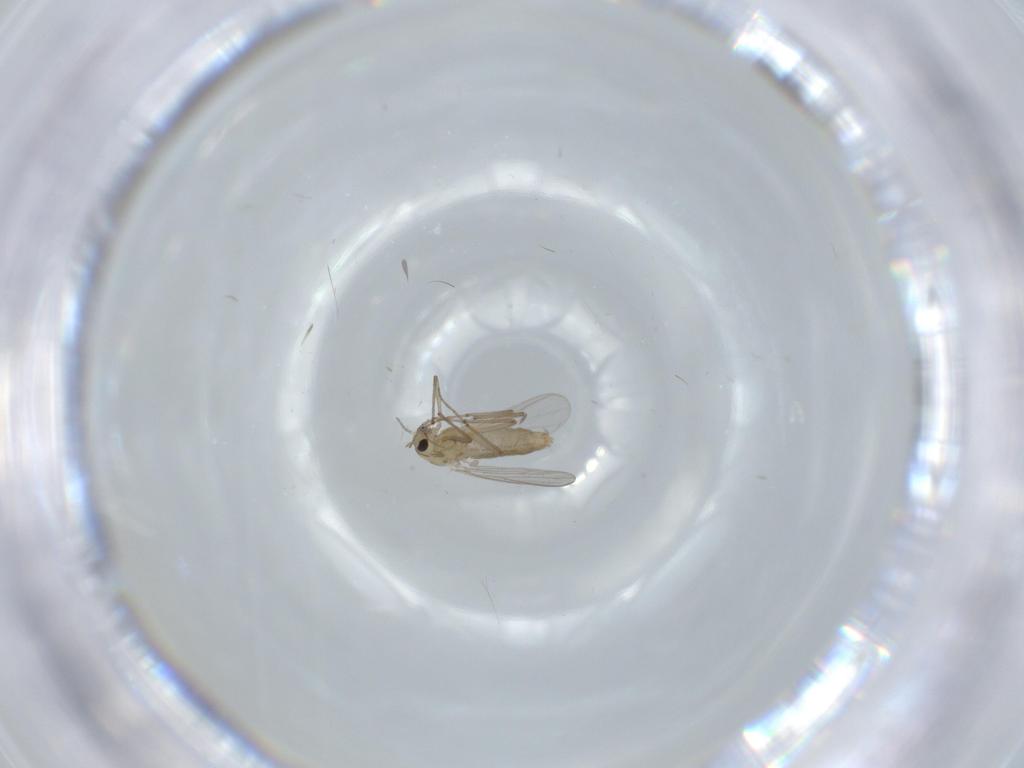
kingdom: Animalia
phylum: Arthropoda
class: Insecta
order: Diptera
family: Chironomidae
